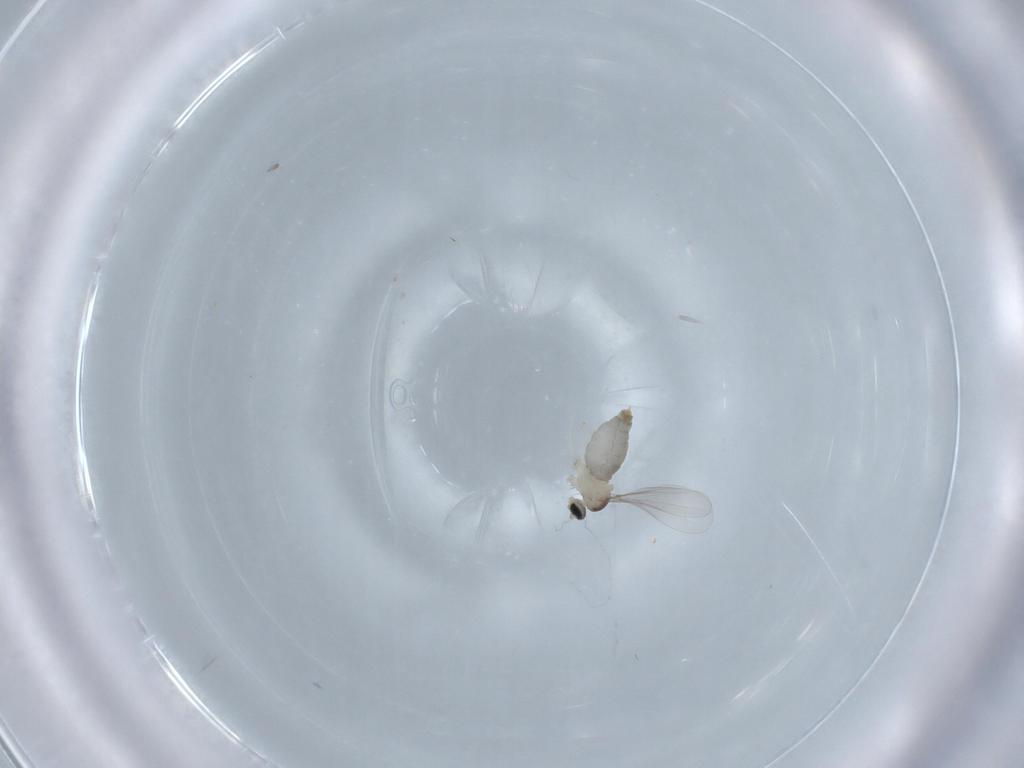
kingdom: Animalia
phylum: Arthropoda
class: Insecta
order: Diptera
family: Cecidomyiidae
